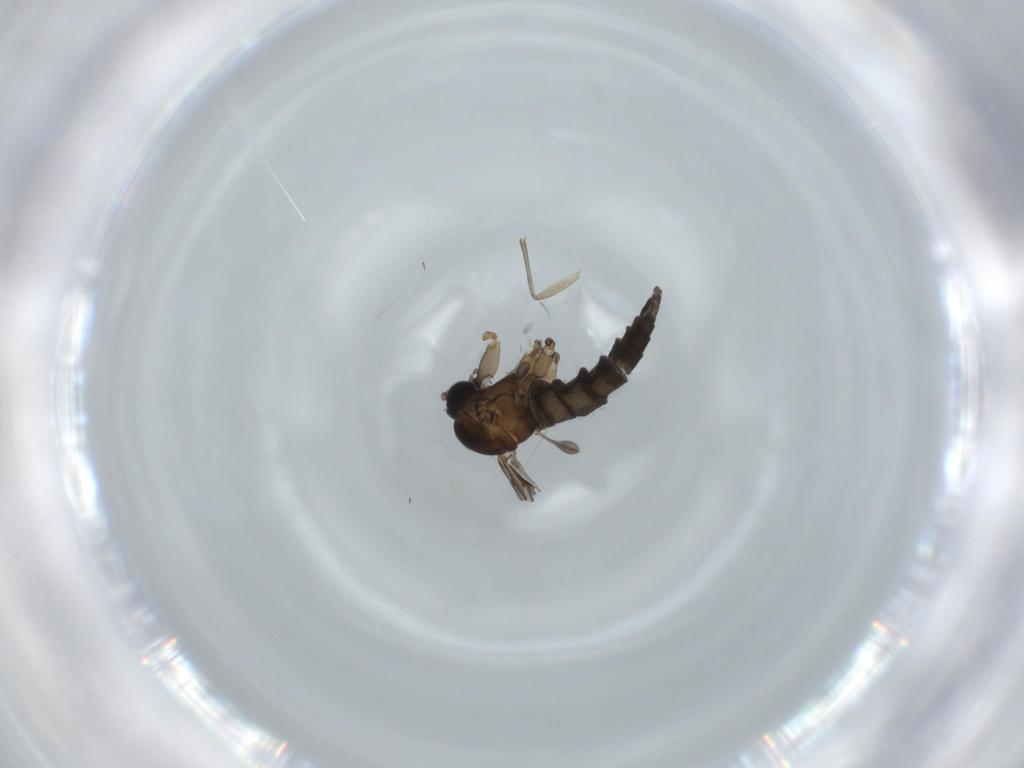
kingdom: Animalia
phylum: Arthropoda
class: Insecta
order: Diptera
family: Sciaridae
